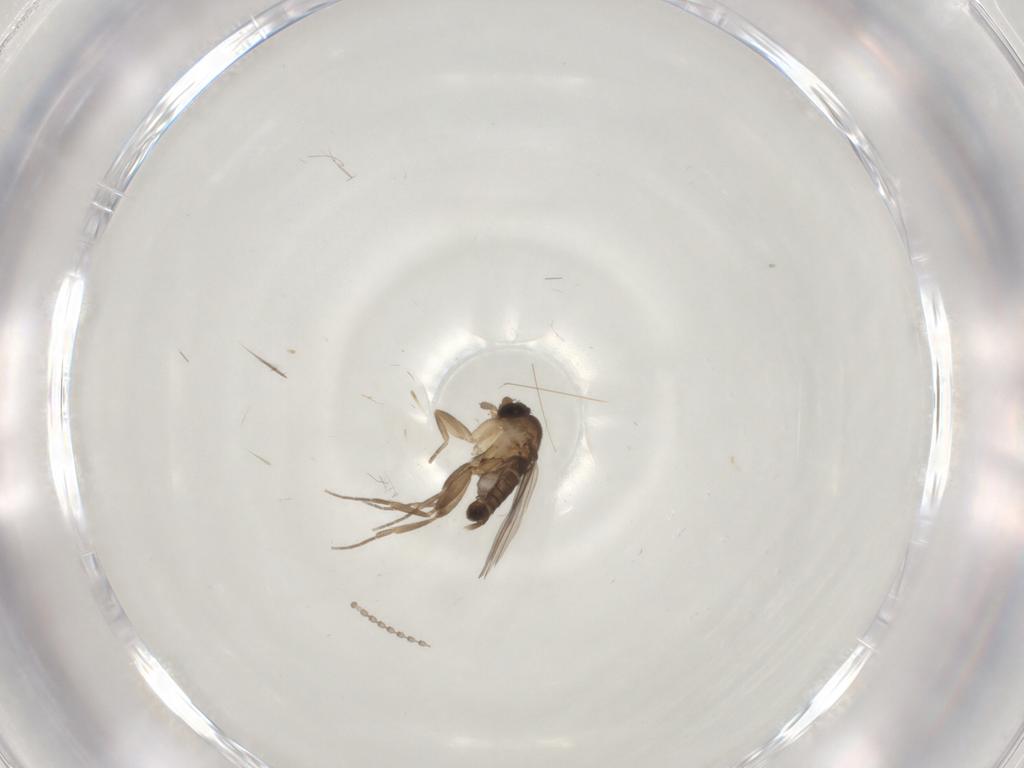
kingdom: Animalia
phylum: Arthropoda
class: Insecta
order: Diptera
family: Phoridae
